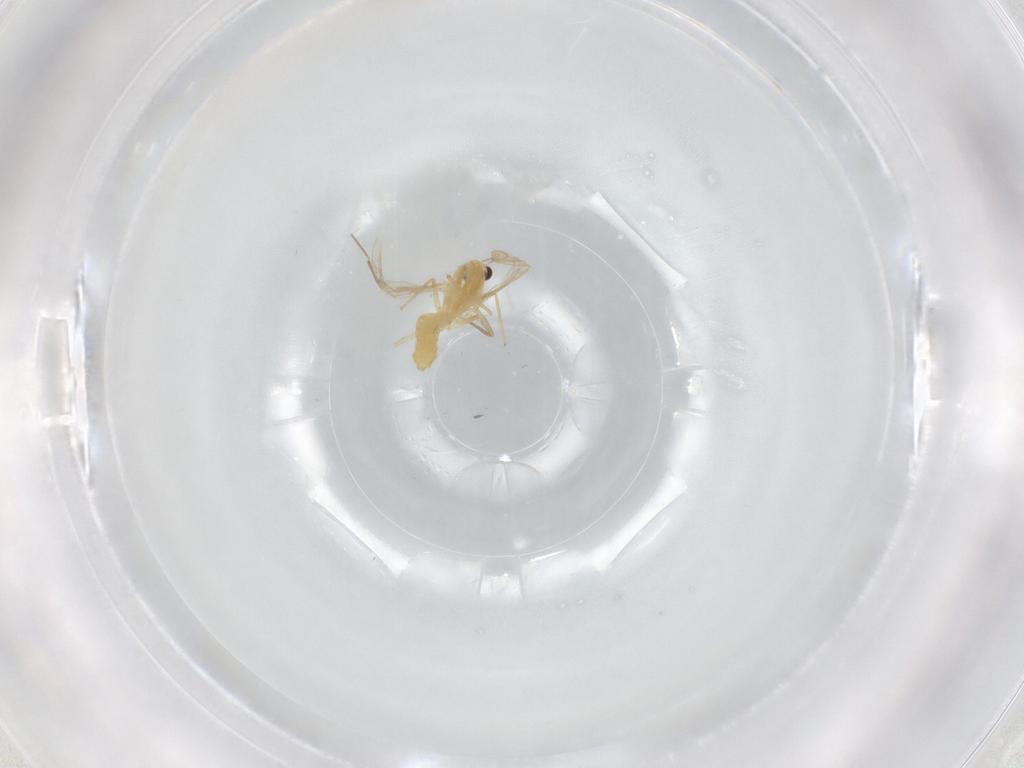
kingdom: Animalia
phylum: Arthropoda
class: Insecta
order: Diptera
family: Chironomidae
